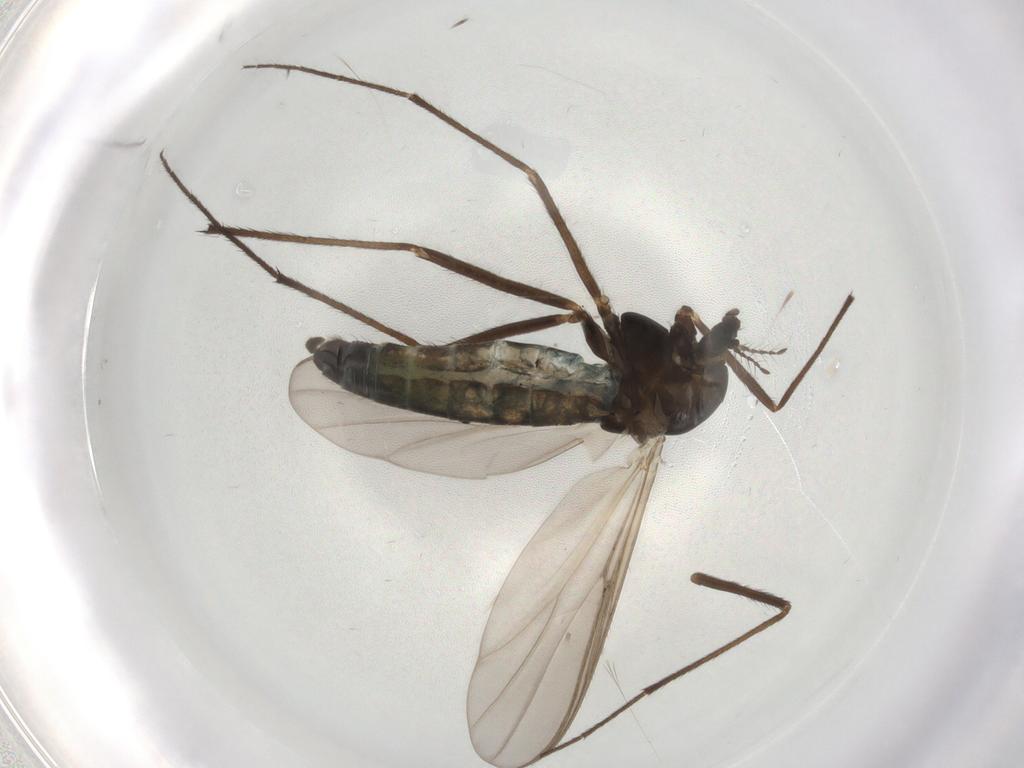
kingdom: Animalia
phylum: Arthropoda
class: Insecta
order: Diptera
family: Chironomidae
